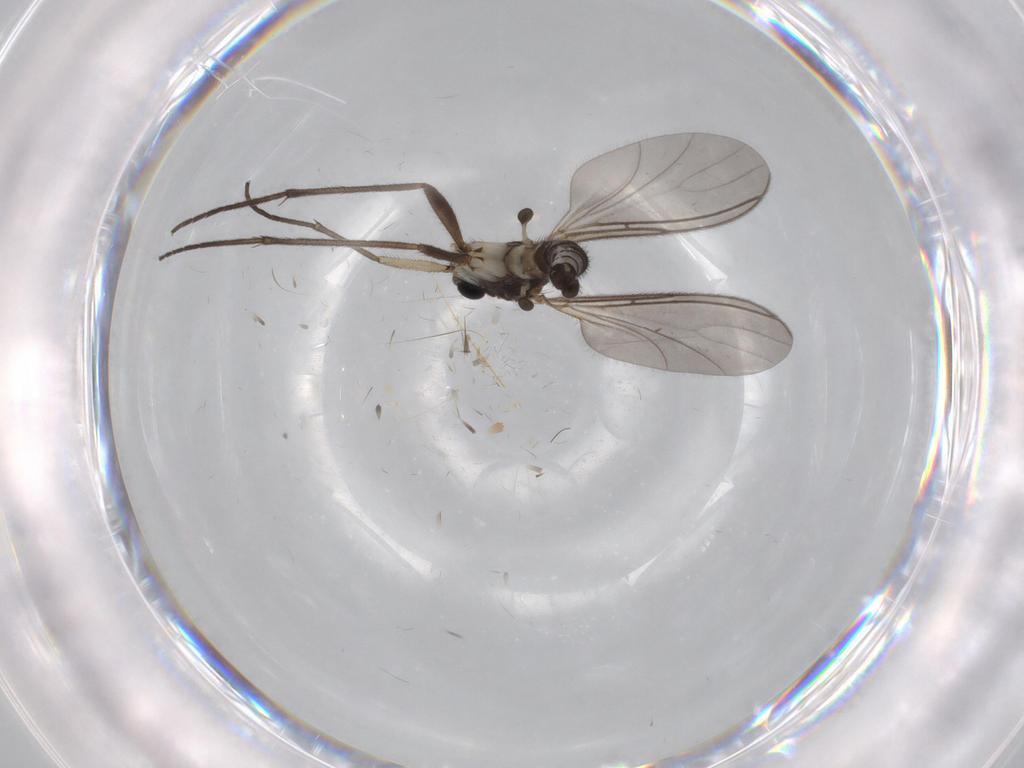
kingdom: Animalia
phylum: Arthropoda
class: Insecta
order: Diptera
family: Sciaridae
